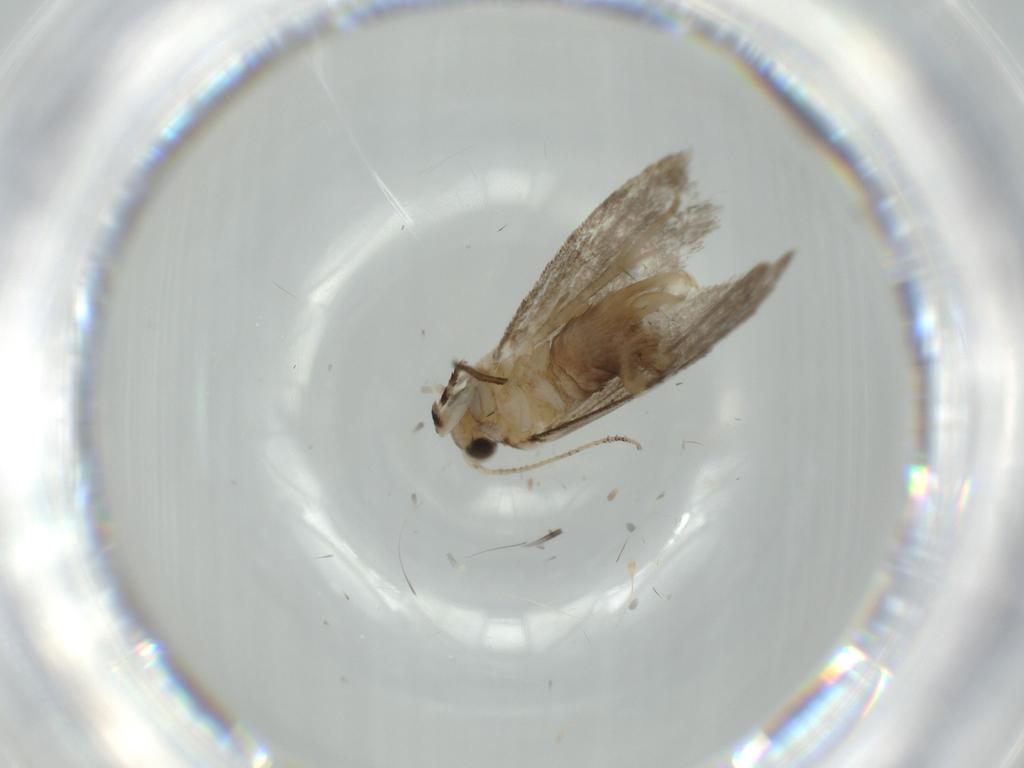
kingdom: Animalia
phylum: Arthropoda
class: Insecta
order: Lepidoptera
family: Tineidae
